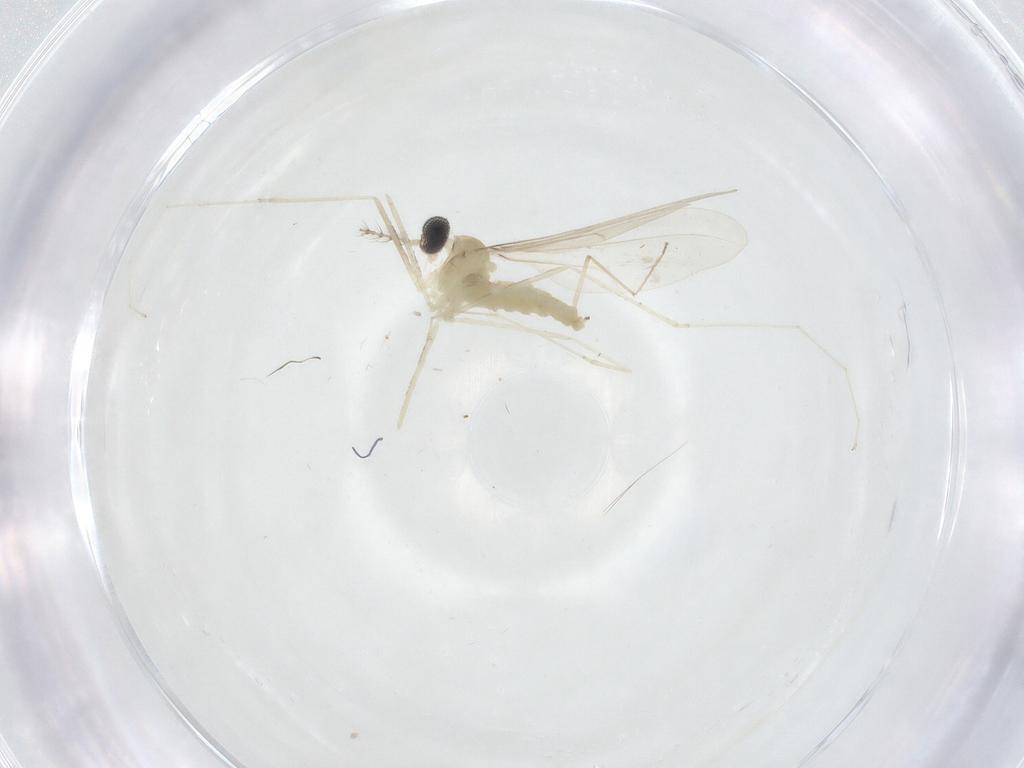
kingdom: Animalia
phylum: Arthropoda
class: Insecta
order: Diptera
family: Cecidomyiidae
